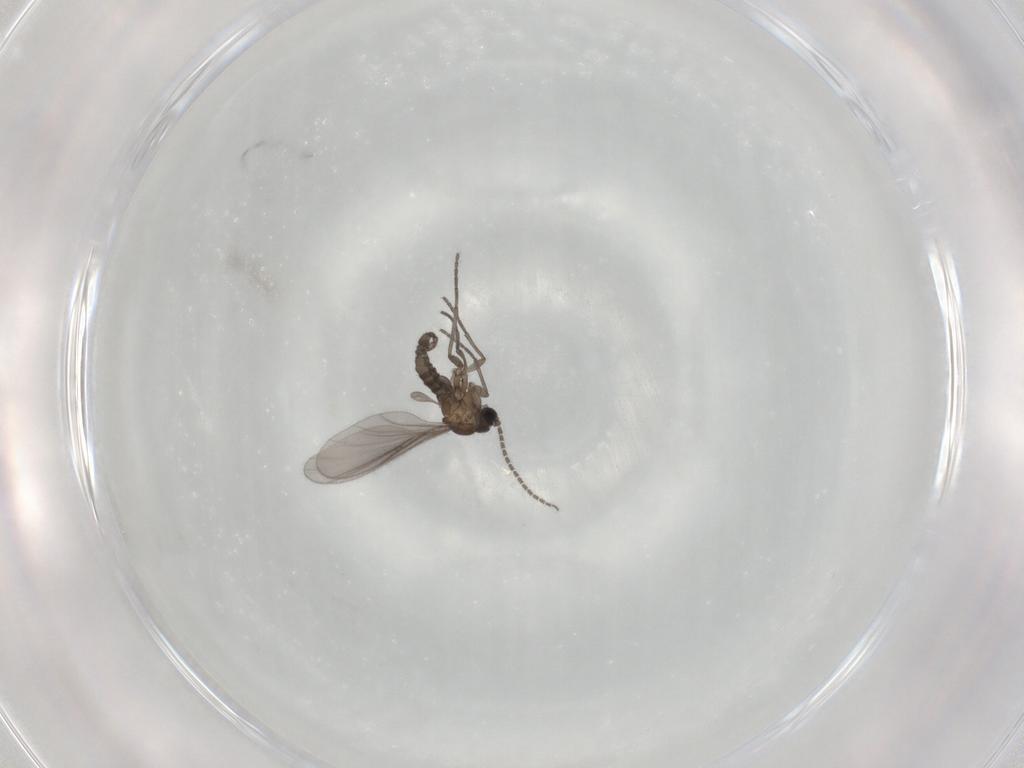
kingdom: Animalia
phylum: Arthropoda
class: Insecta
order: Diptera
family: Sciaridae
